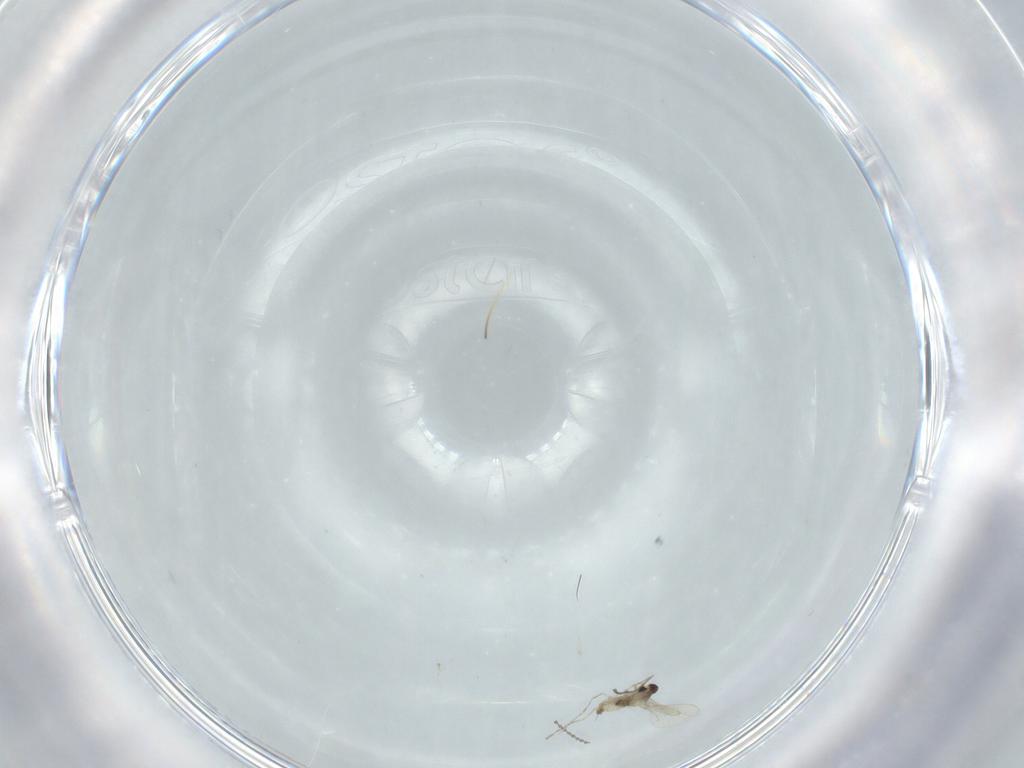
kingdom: Animalia
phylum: Arthropoda
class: Insecta
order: Diptera
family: Cecidomyiidae
